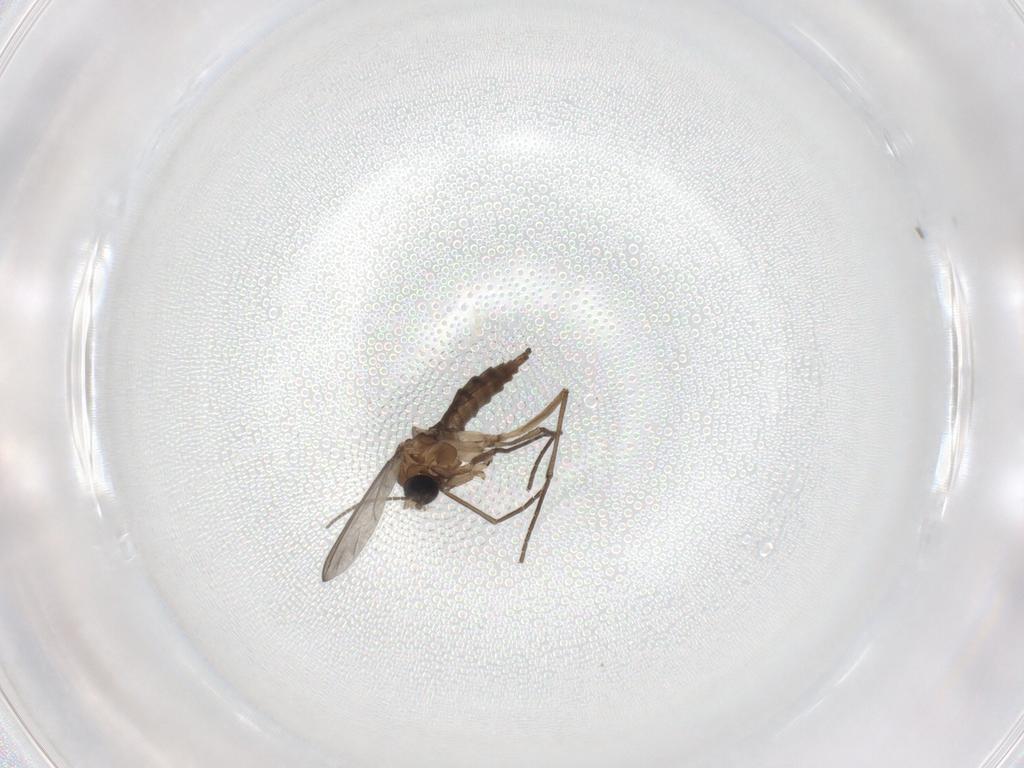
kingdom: Animalia
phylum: Arthropoda
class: Insecta
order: Diptera
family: Sciaridae
